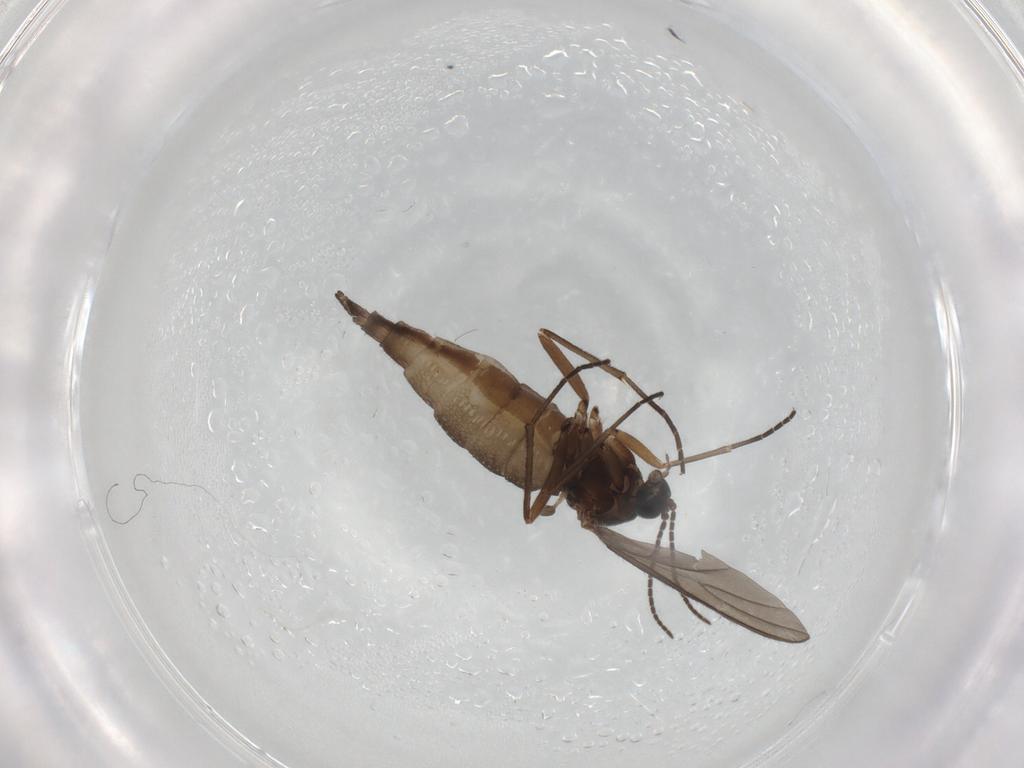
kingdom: Animalia
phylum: Arthropoda
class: Insecta
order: Diptera
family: Sciaridae
